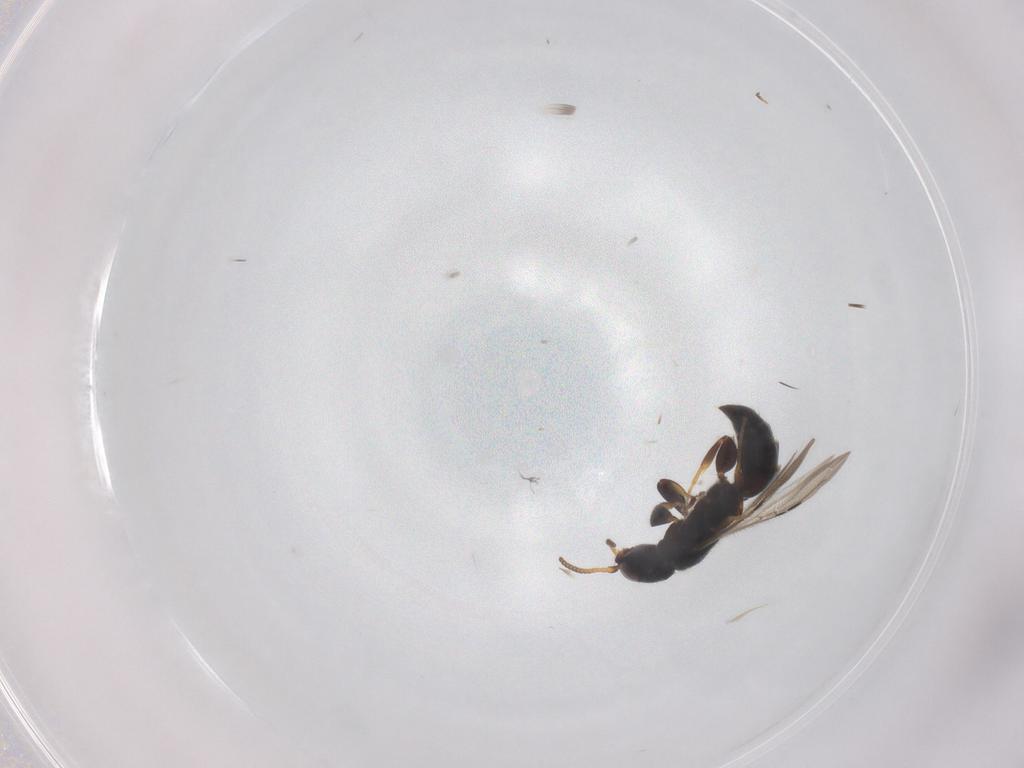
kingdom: Animalia
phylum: Arthropoda
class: Insecta
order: Hymenoptera
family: Bethylidae
